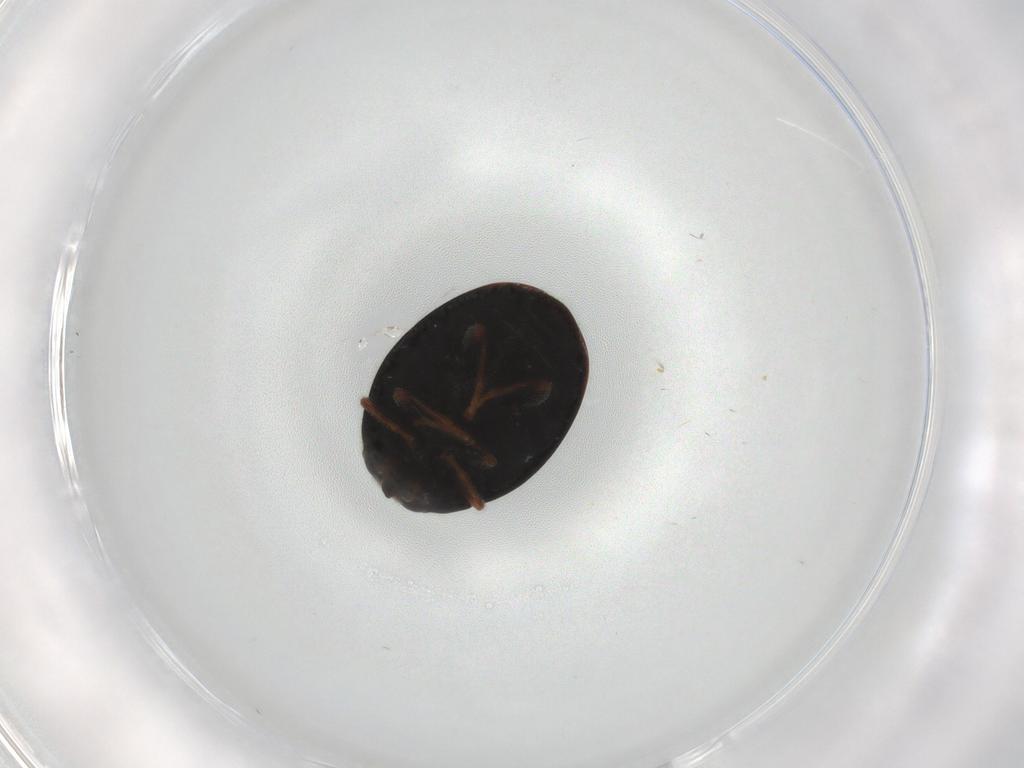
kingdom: Animalia
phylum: Arthropoda
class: Insecta
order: Coleoptera
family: Coccinellidae
